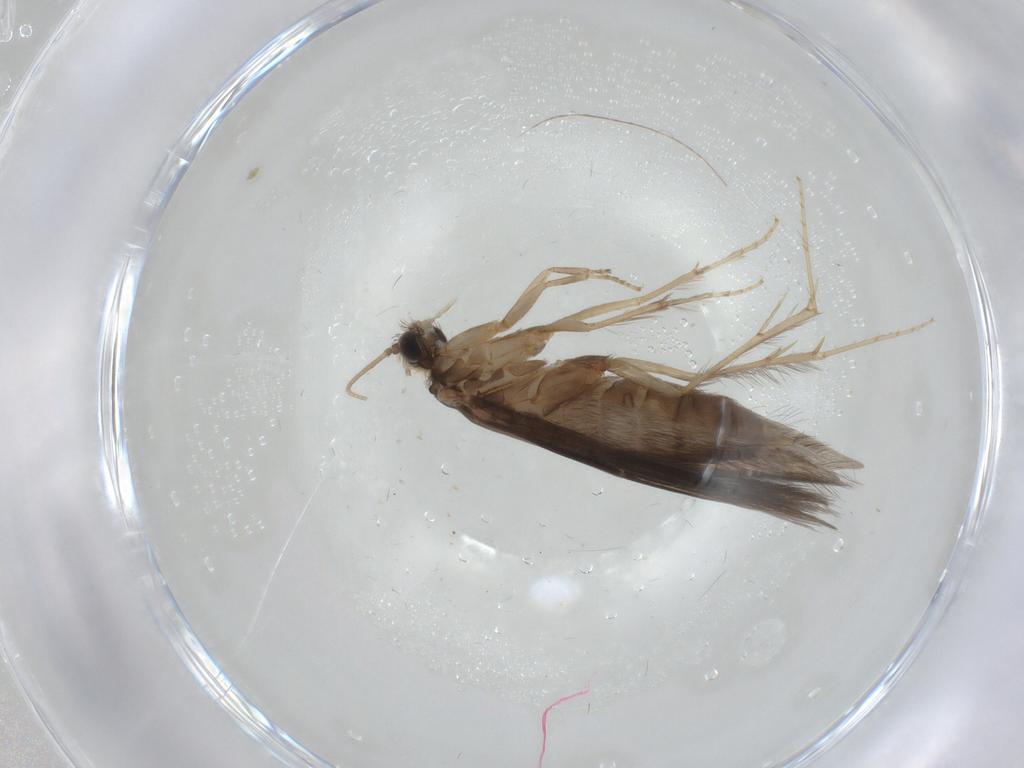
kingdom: Animalia
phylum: Arthropoda
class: Insecta
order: Trichoptera
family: Hydroptilidae
